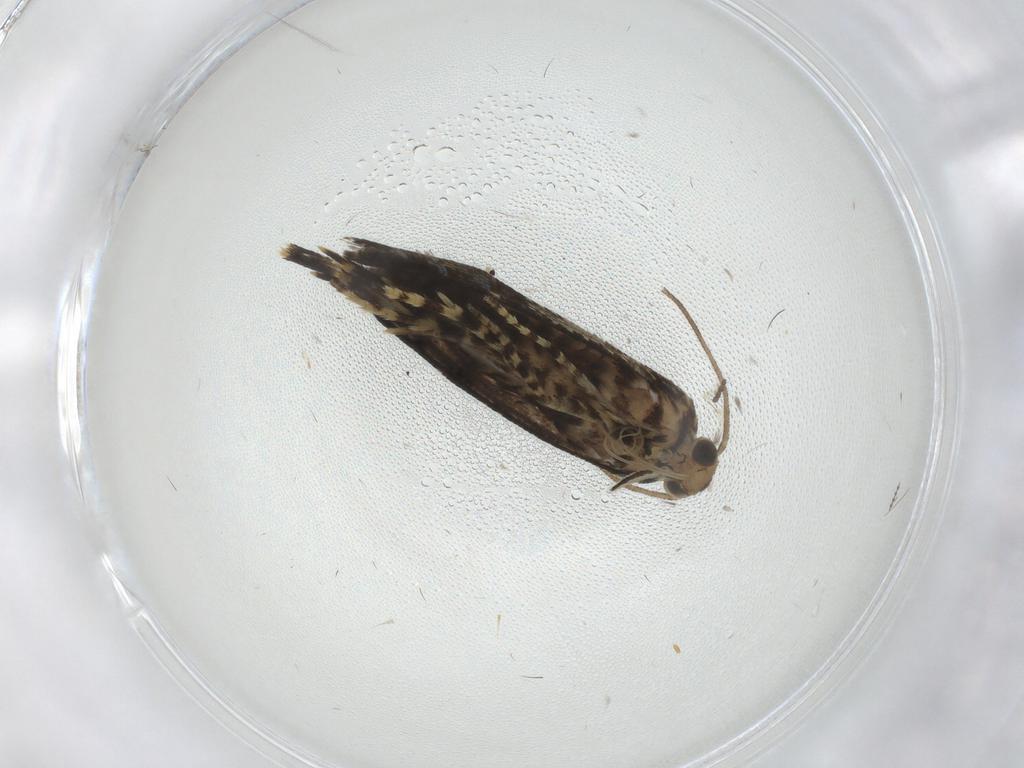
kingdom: Animalia
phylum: Arthropoda
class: Insecta
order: Lepidoptera
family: Geometridae
